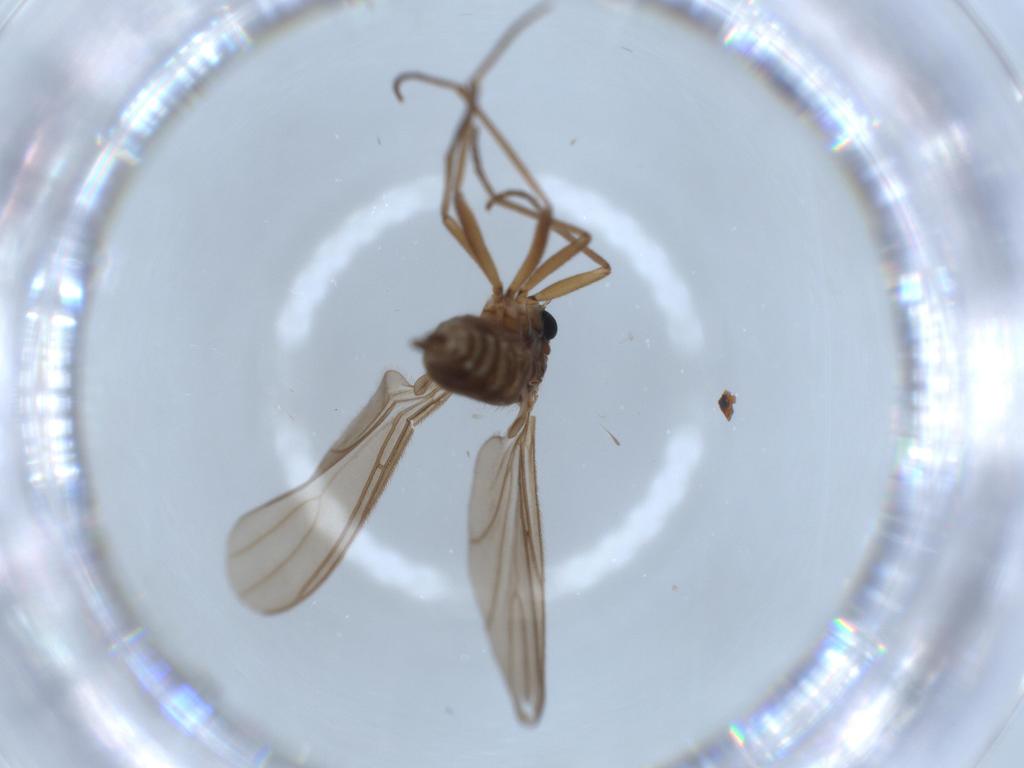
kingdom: Animalia
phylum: Arthropoda
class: Insecta
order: Diptera
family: Sciaridae
